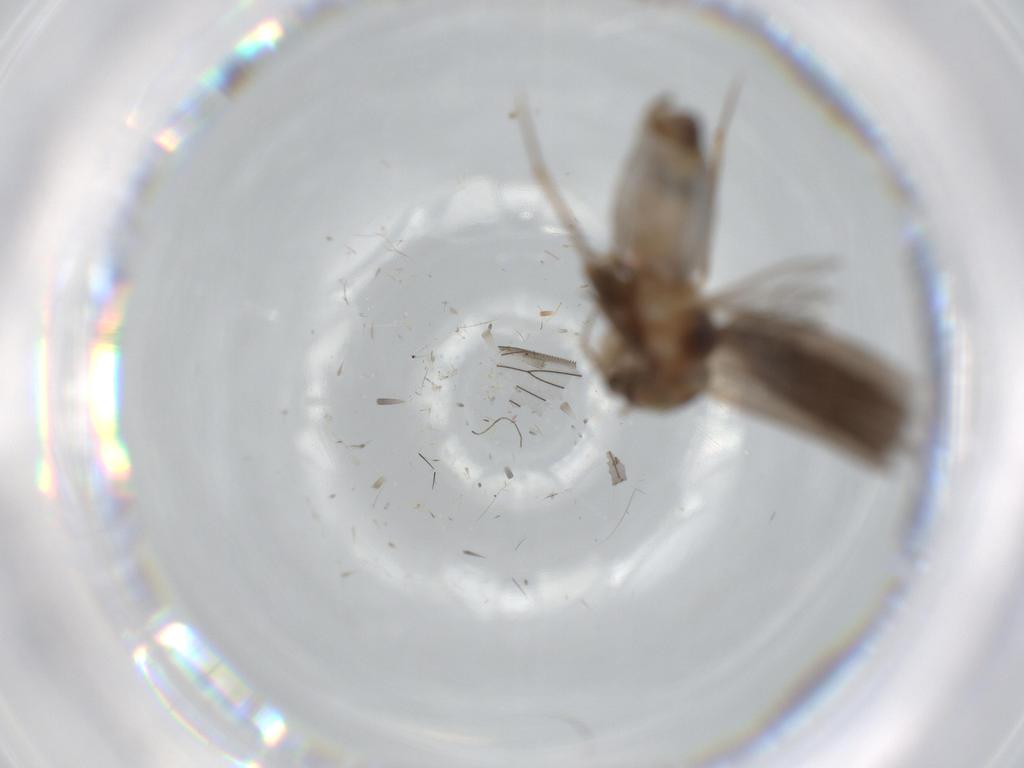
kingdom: Animalia
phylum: Arthropoda
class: Insecta
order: Psocodea
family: Lepidopsocidae
